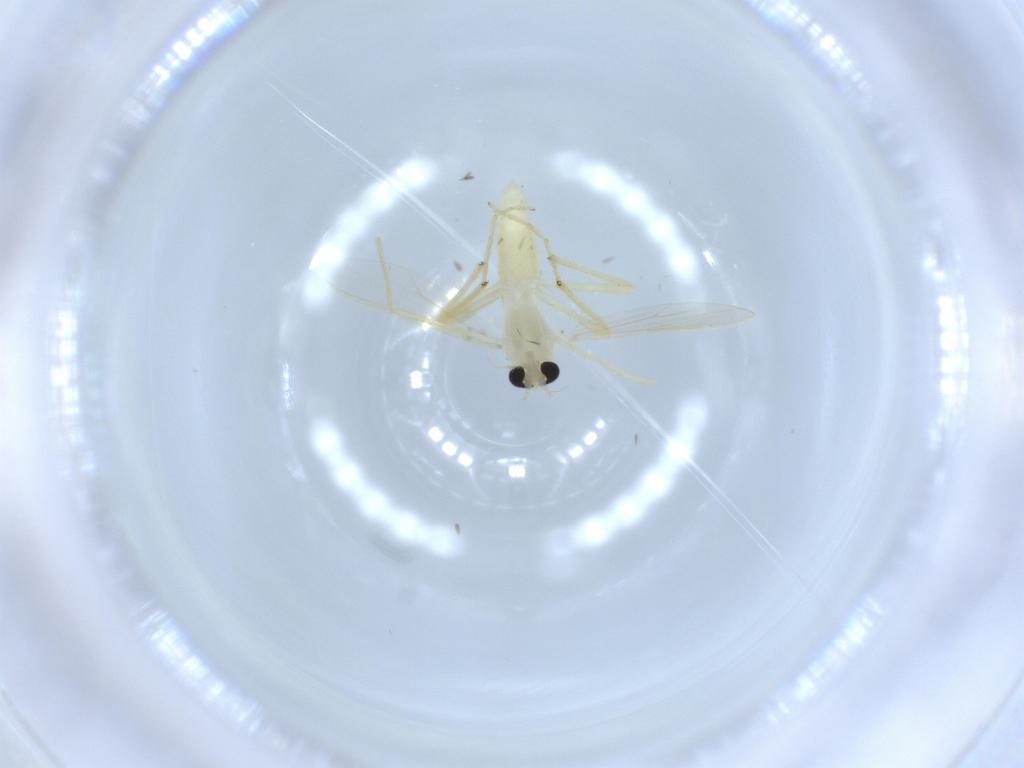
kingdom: Animalia
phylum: Arthropoda
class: Insecta
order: Diptera
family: Chironomidae
